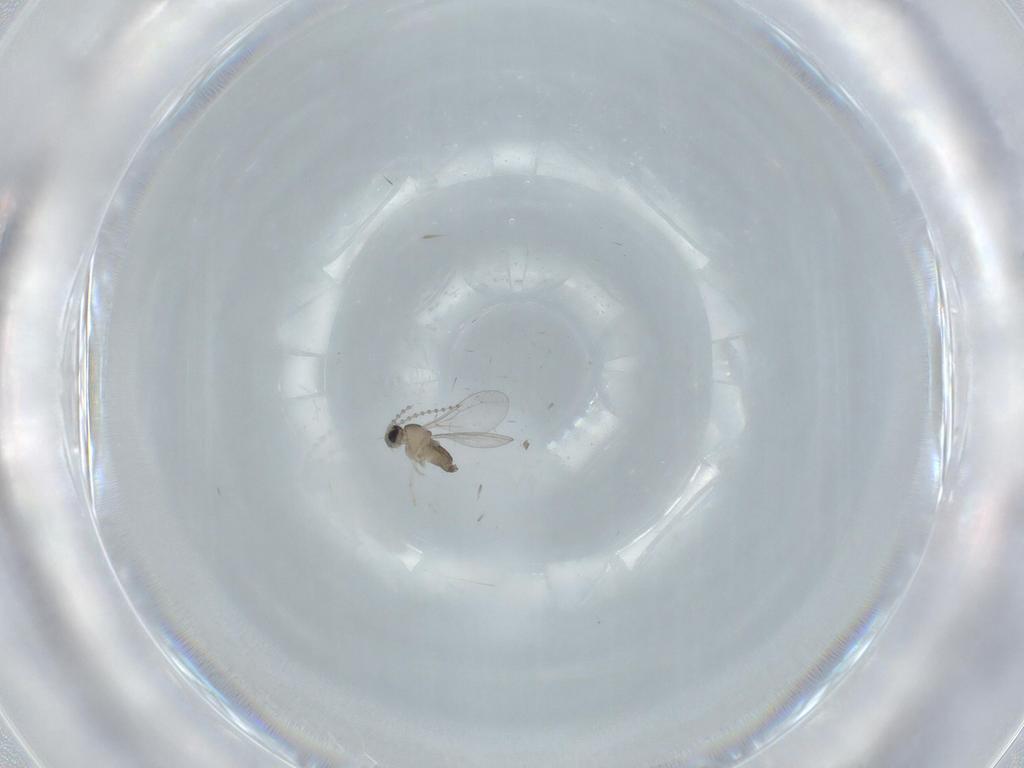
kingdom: Animalia
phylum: Arthropoda
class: Insecta
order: Diptera
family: Cecidomyiidae
